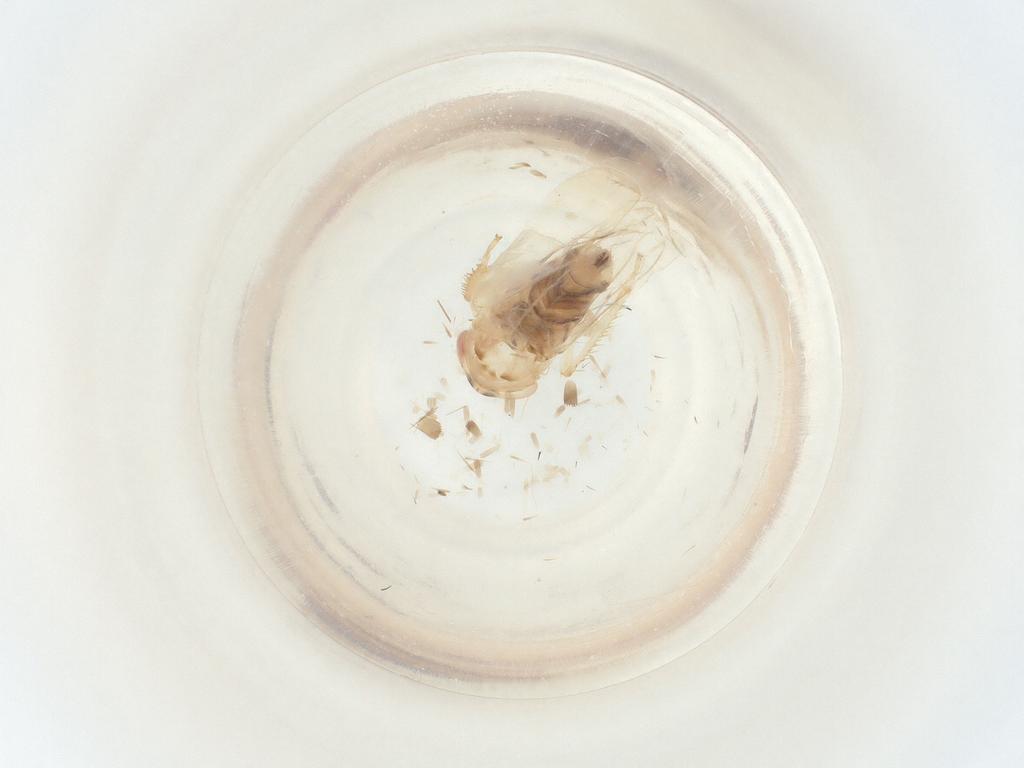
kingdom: Animalia
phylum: Arthropoda
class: Insecta
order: Hemiptera
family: Cicadellidae
